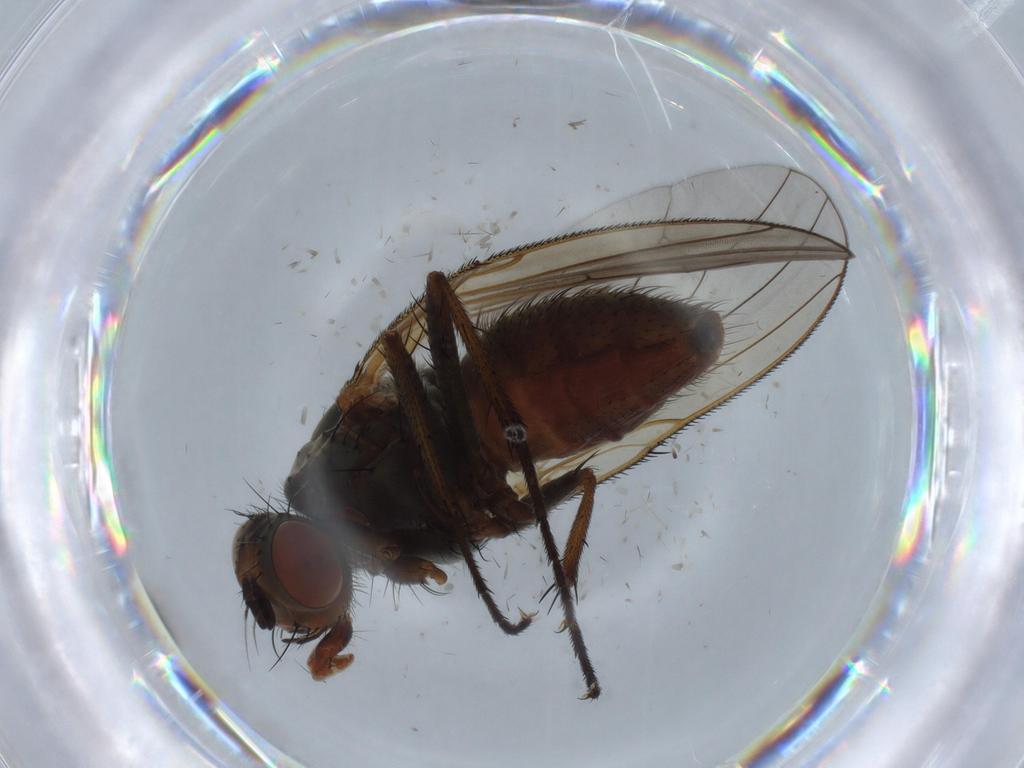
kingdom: Animalia
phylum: Arthropoda
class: Insecta
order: Diptera
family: Anthomyiidae
